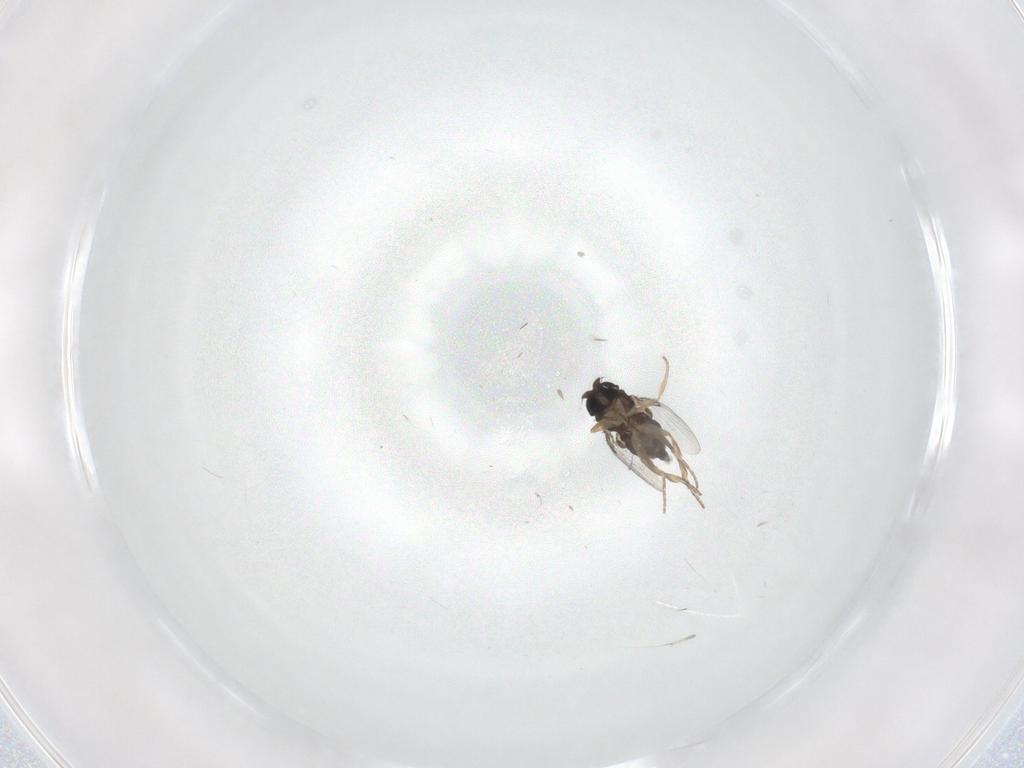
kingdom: Animalia
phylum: Arthropoda
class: Insecta
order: Diptera
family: Phoridae
